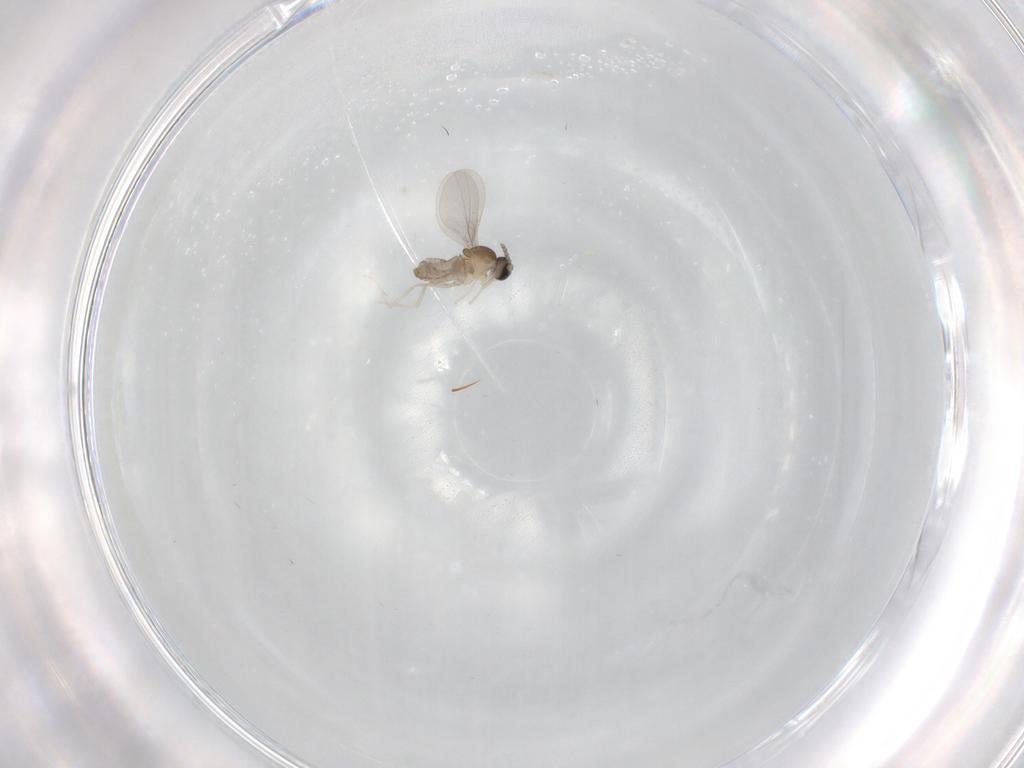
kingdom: Animalia
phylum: Arthropoda
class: Insecta
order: Diptera
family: Cecidomyiidae
